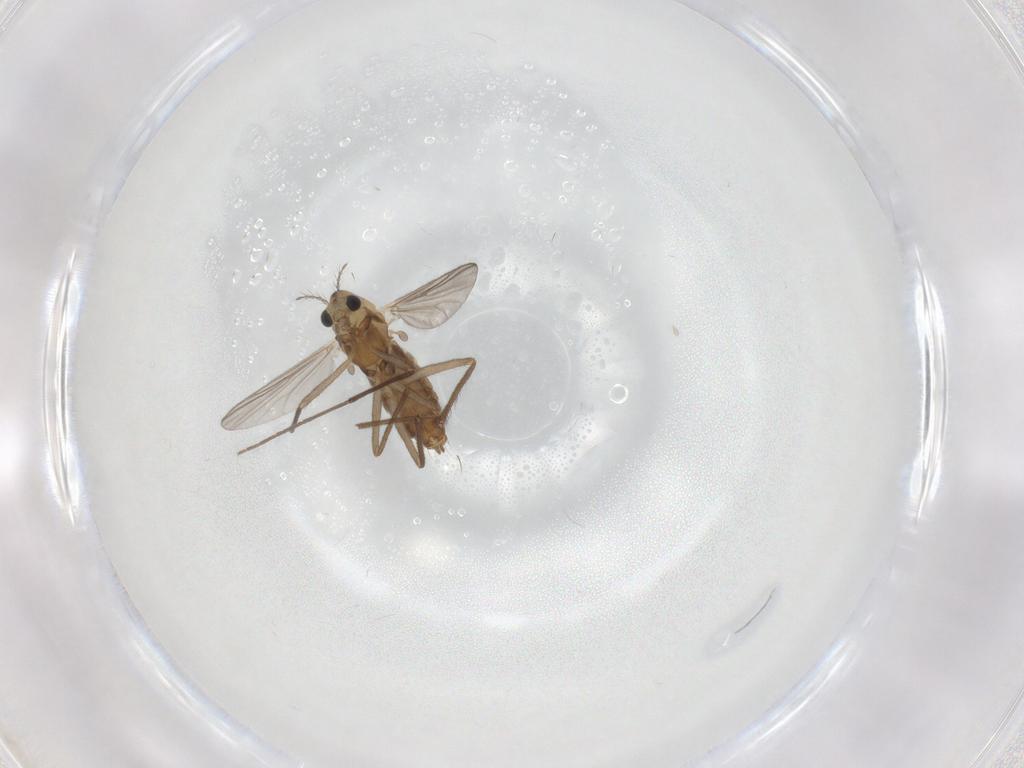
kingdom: Animalia
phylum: Arthropoda
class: Insecta
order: Diptera
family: Chironomidae
